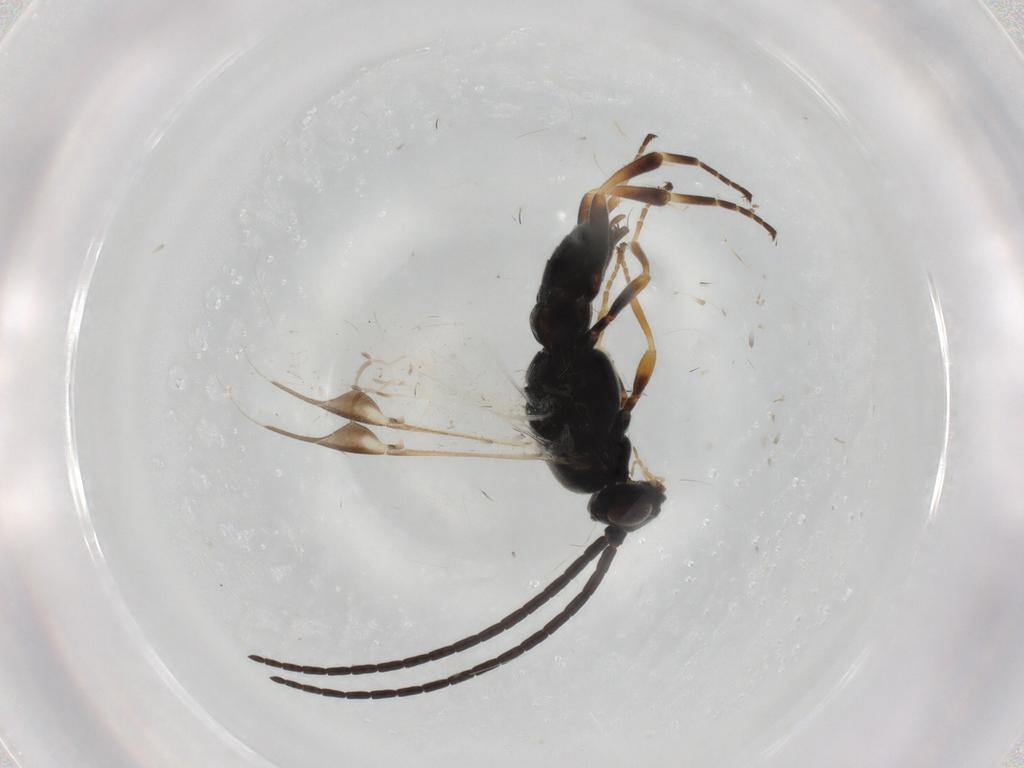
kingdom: Animalia
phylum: Arthropoda
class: Insecta
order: Hymenoptera
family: Braconidae
